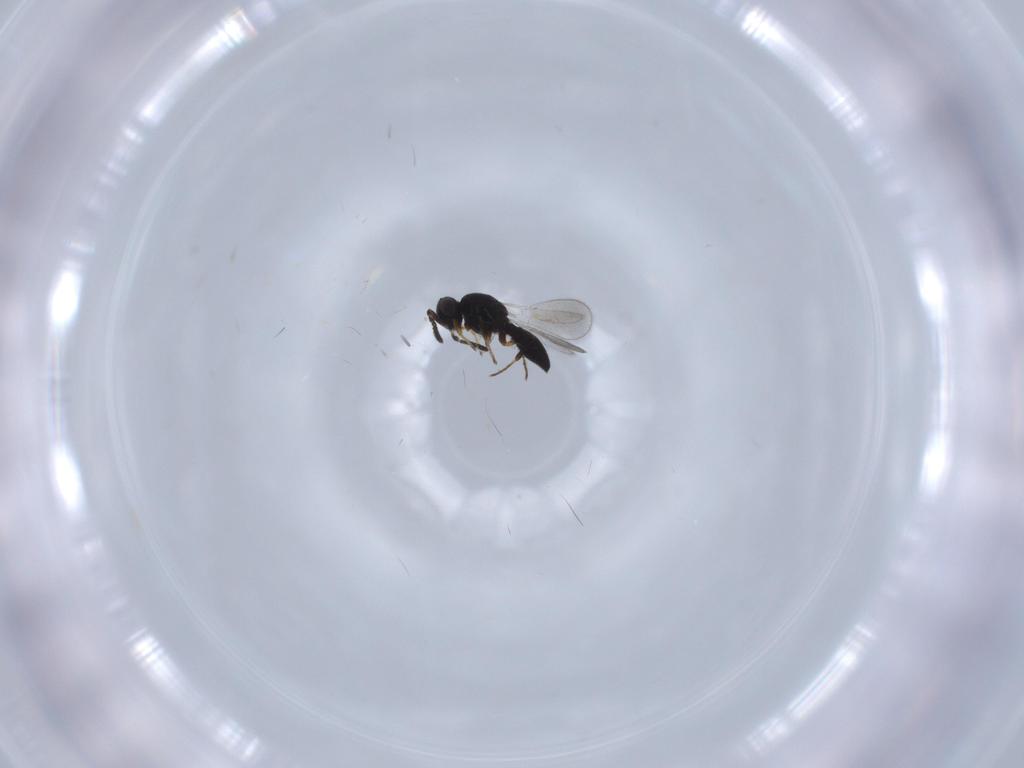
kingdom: Animalia
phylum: Arthropoda
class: Insecta
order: Hymenoptera
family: Platygastridae
